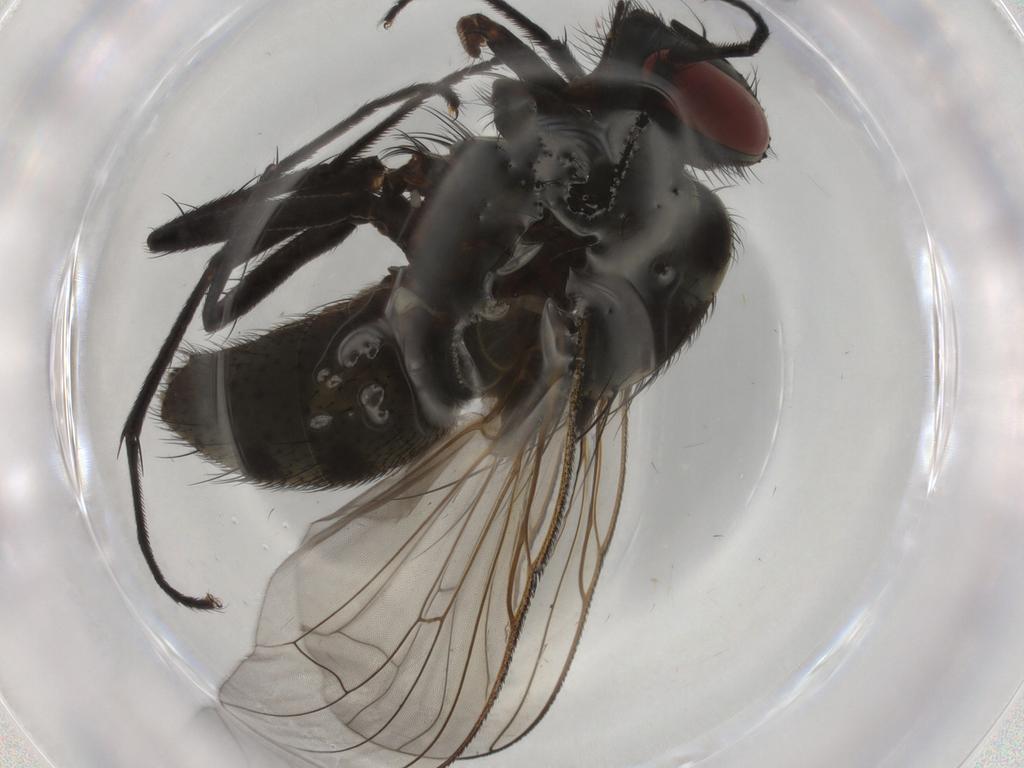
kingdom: Animalia
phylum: Arthropoda
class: Insecta
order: Diptera
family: Muscidae
